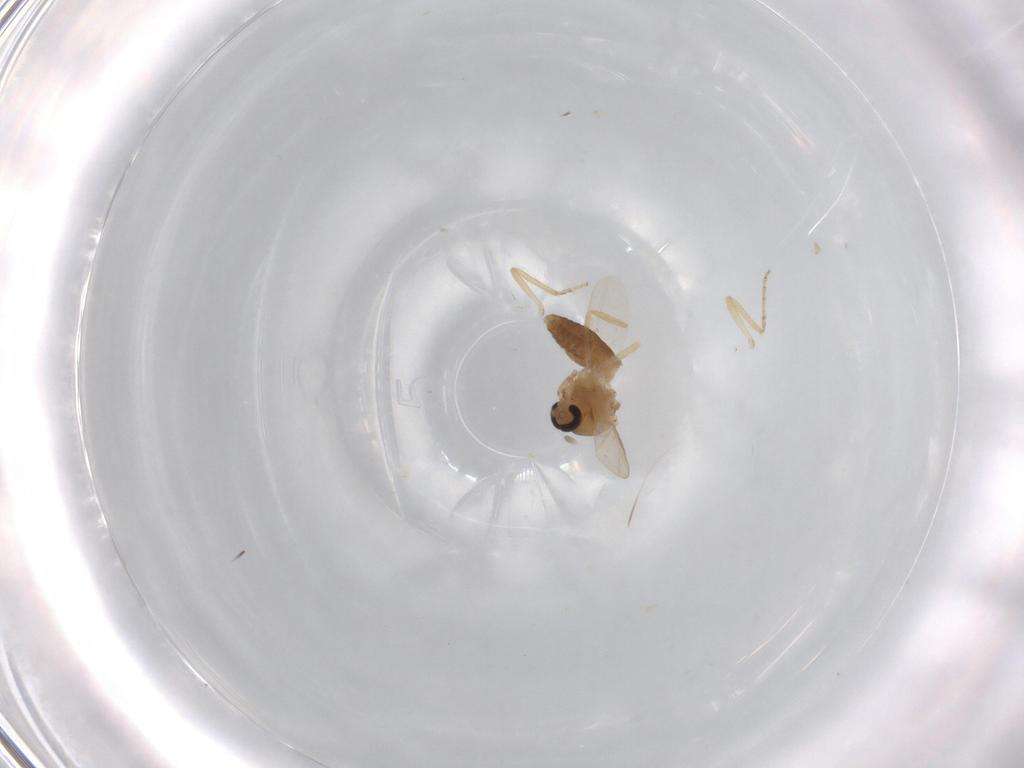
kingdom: Animalia
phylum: Arthropoda
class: Insecta
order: Diptera
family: Ceratopogonidae
